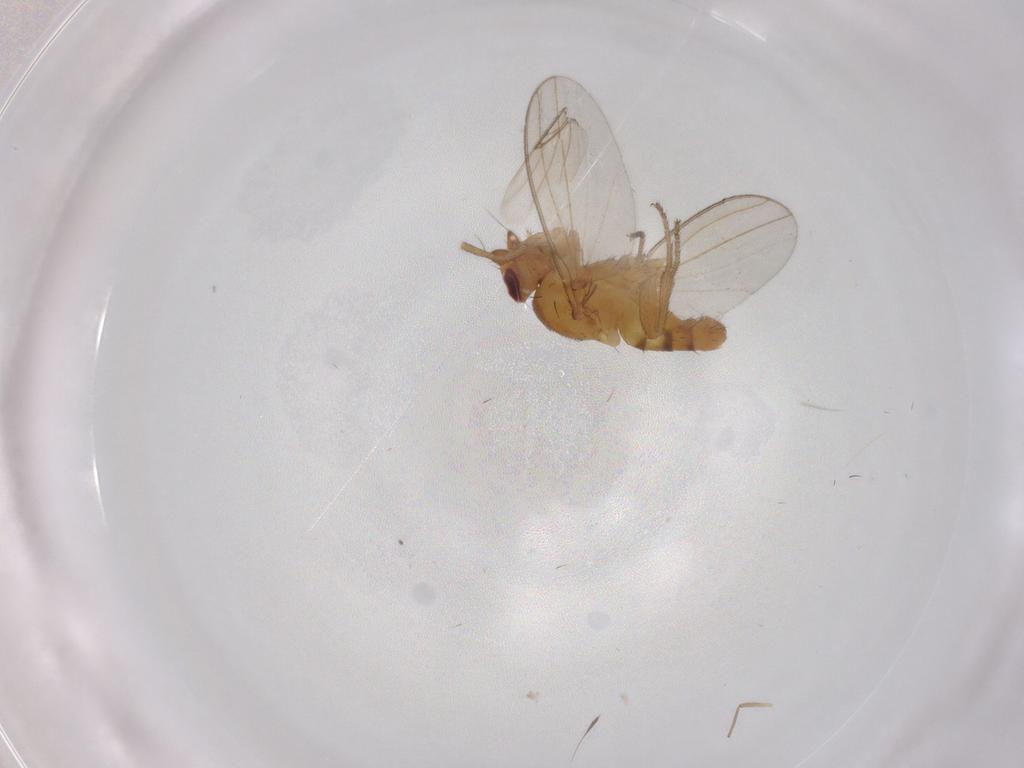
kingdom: Animalia
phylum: Arthropoda
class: Insecta
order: Diptera
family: Milichiidae
